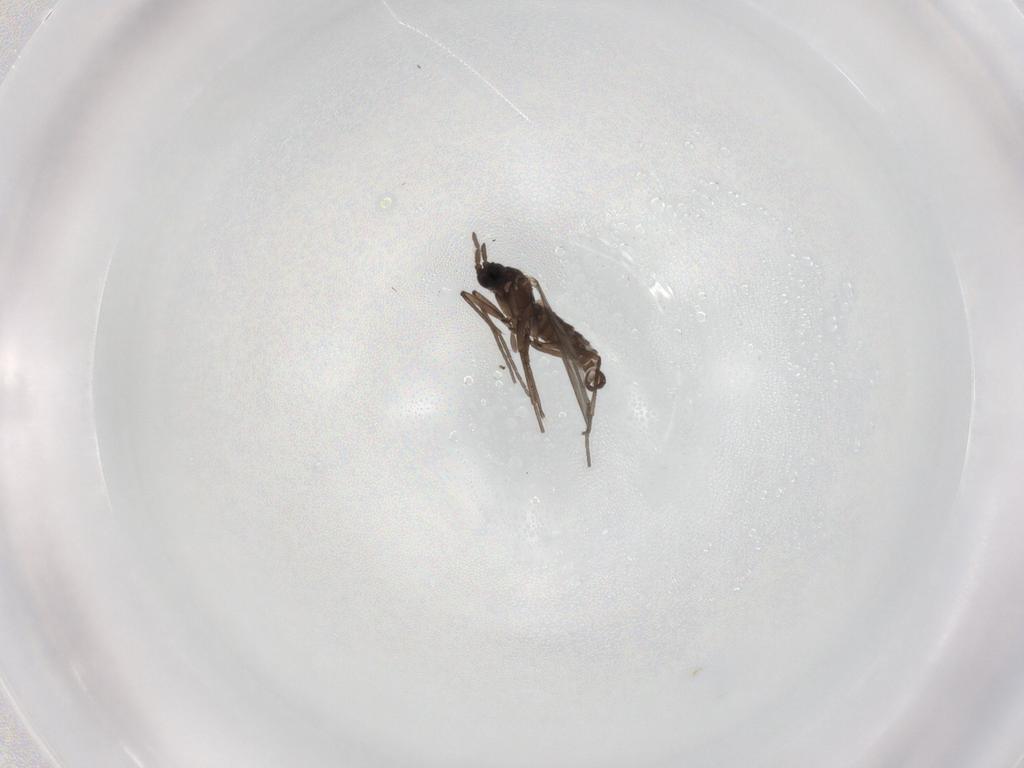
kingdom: Animalia
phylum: Arthropoda
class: Insecta
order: Diptera
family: Sciaridae
